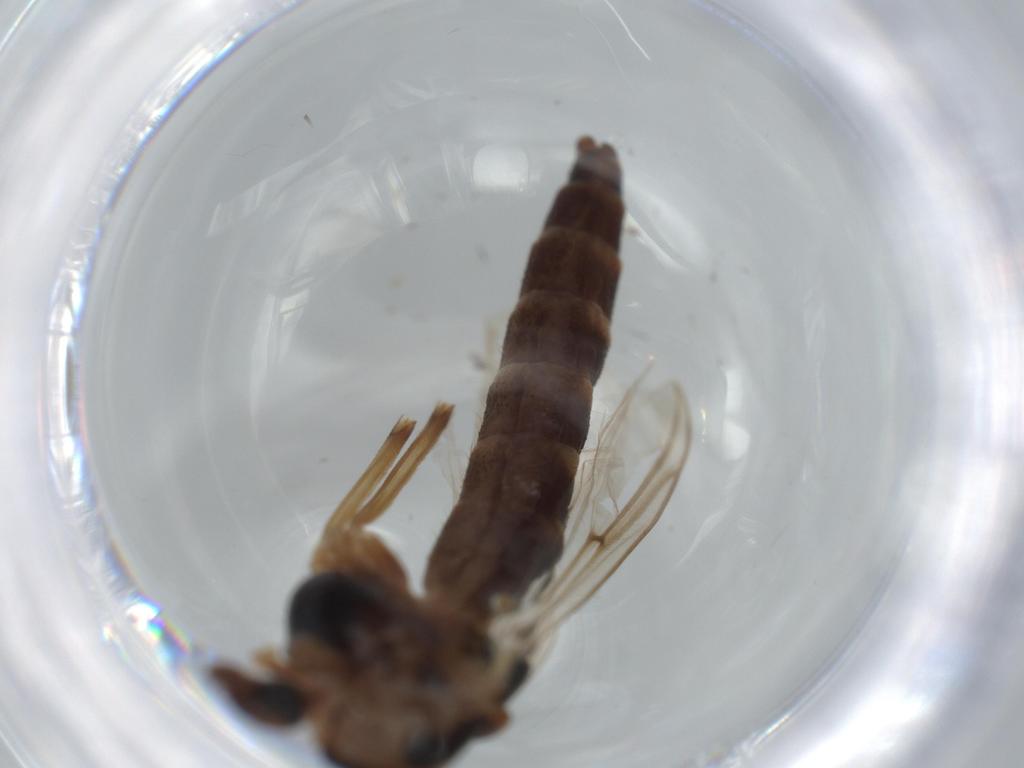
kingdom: Animalia
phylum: Arthropoda
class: Insecta
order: Diptera
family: Chironomidae
